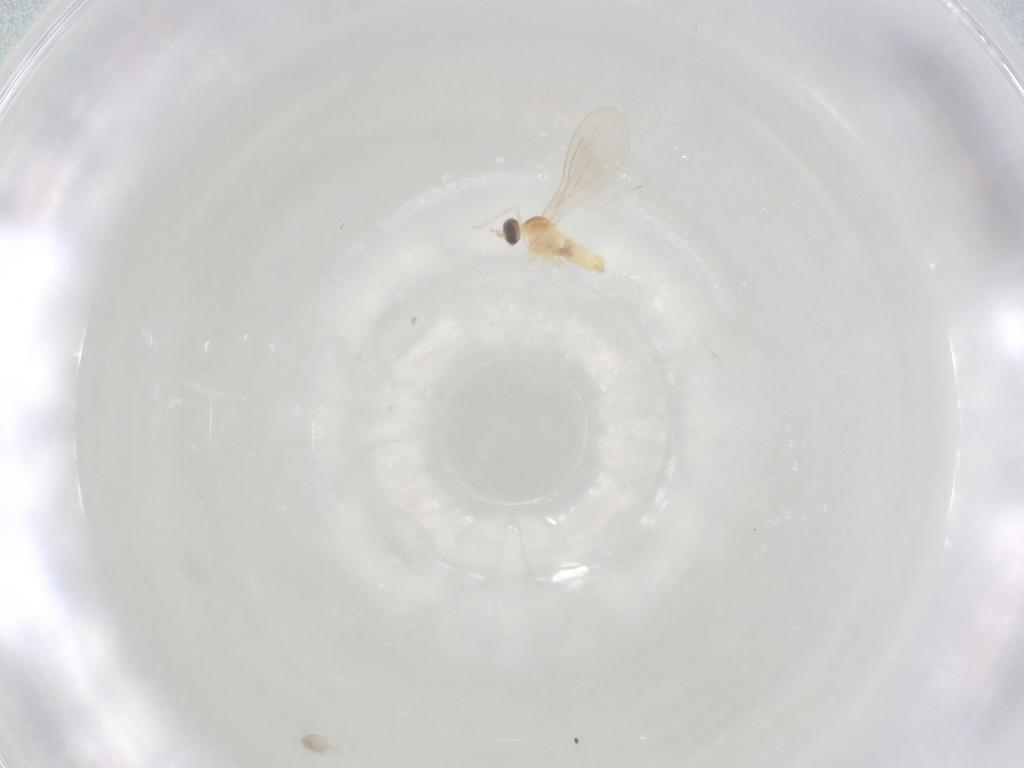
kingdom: Animalia
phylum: Arthropoda
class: Insecta
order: Diptera
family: Cecidomyiidae
